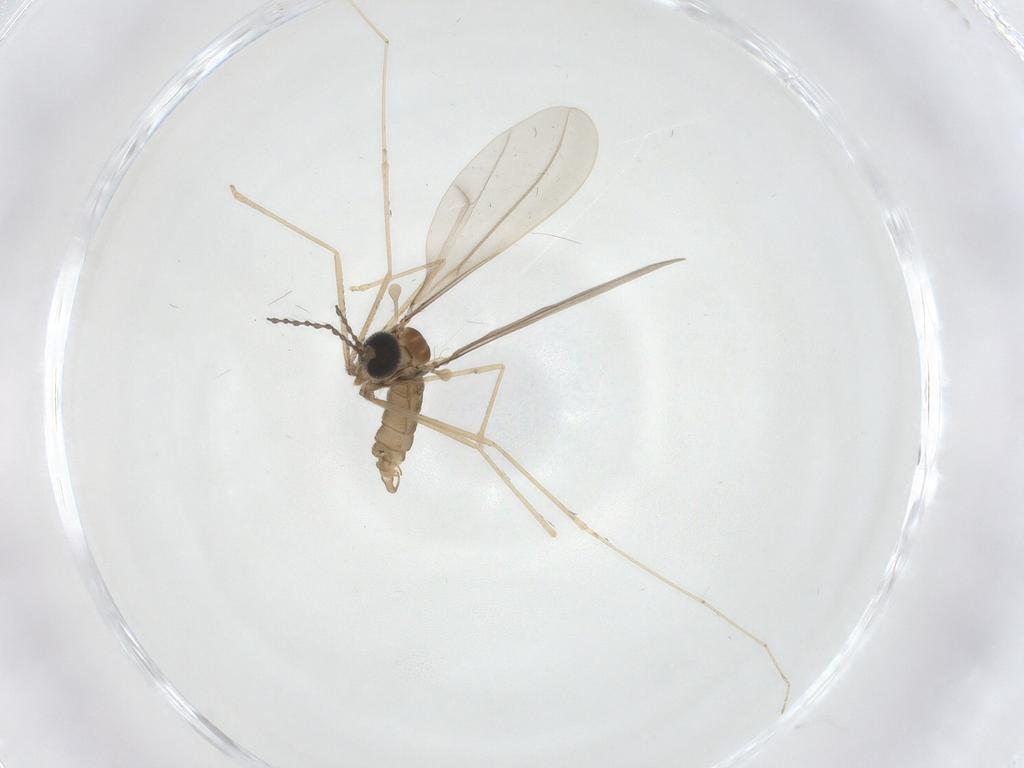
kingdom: Animalia
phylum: Arthropoda
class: Insecta
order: Diptera
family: Cecidomyiidae
